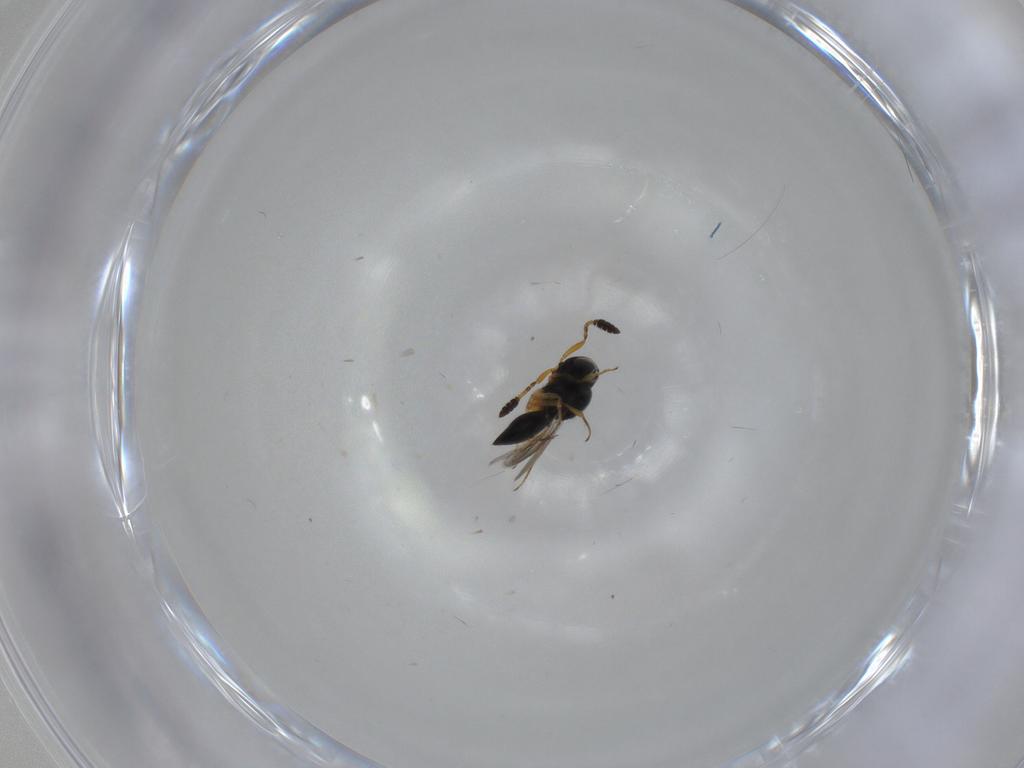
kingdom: Animalia
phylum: Arthropoda
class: Insecta
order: Hymenoptera
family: Scelionidae
